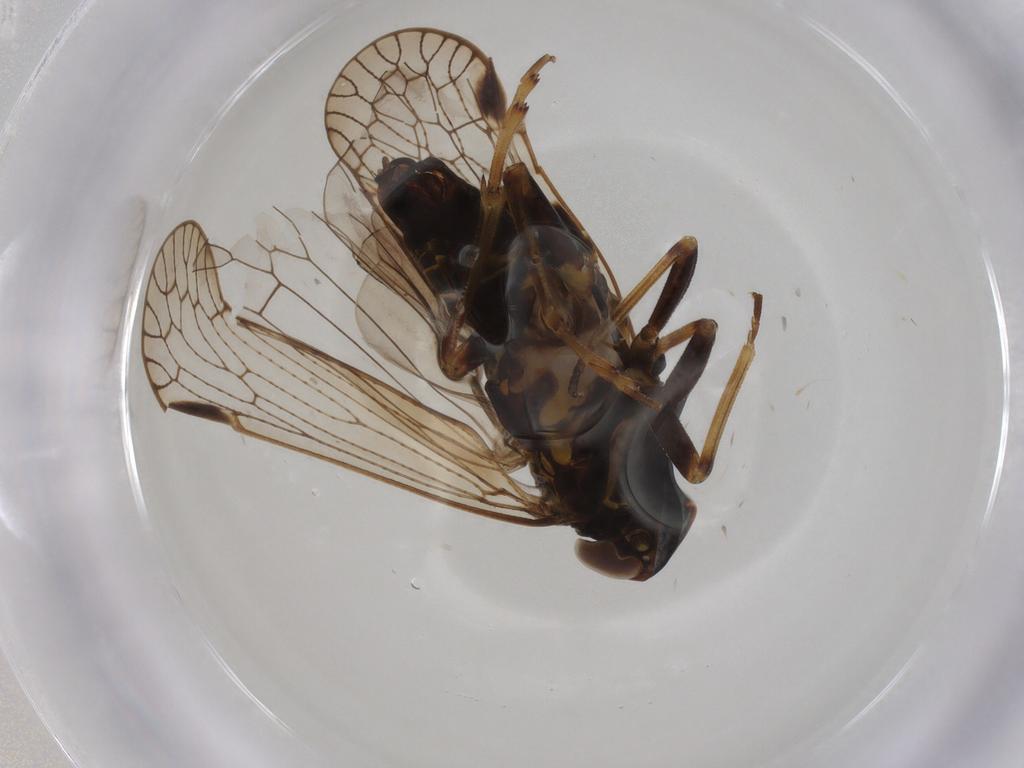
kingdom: Animalia
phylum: Arthropoda
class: Insecta
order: Hemiptera
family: Cixiidae
